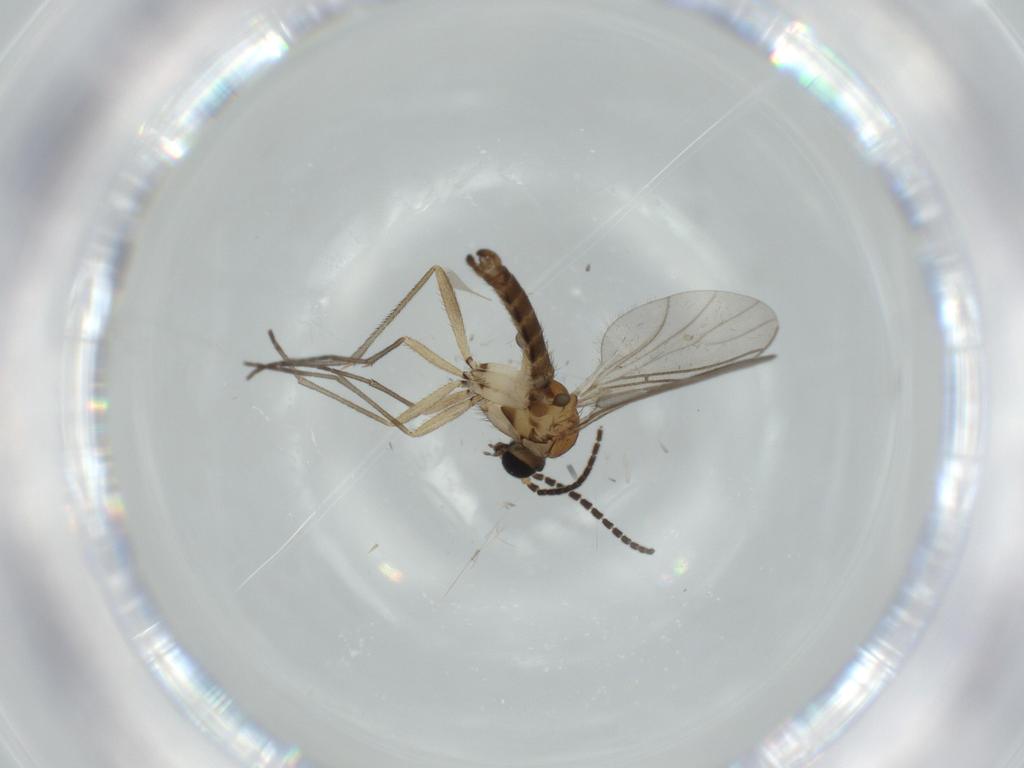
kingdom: Animalia
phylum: Arthropoda
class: Insecta
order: Diptera
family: Sciaridae
